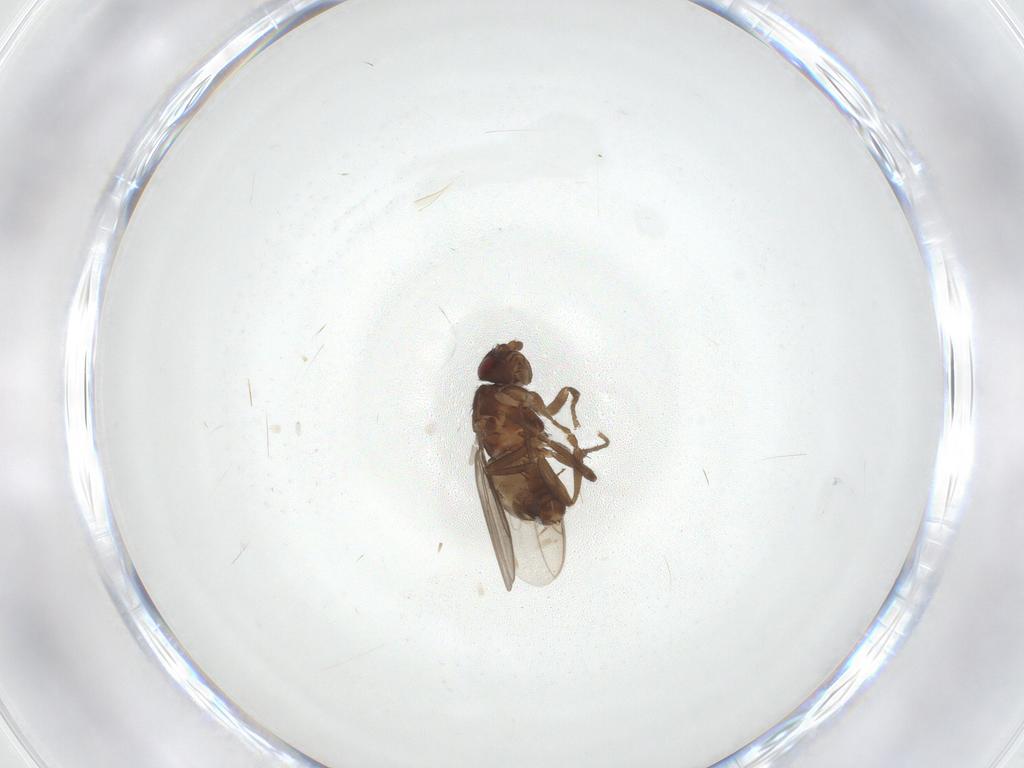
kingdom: Animalia
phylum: Arthropoda
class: Insecta
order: Diptera
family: Sphaeroceridae
